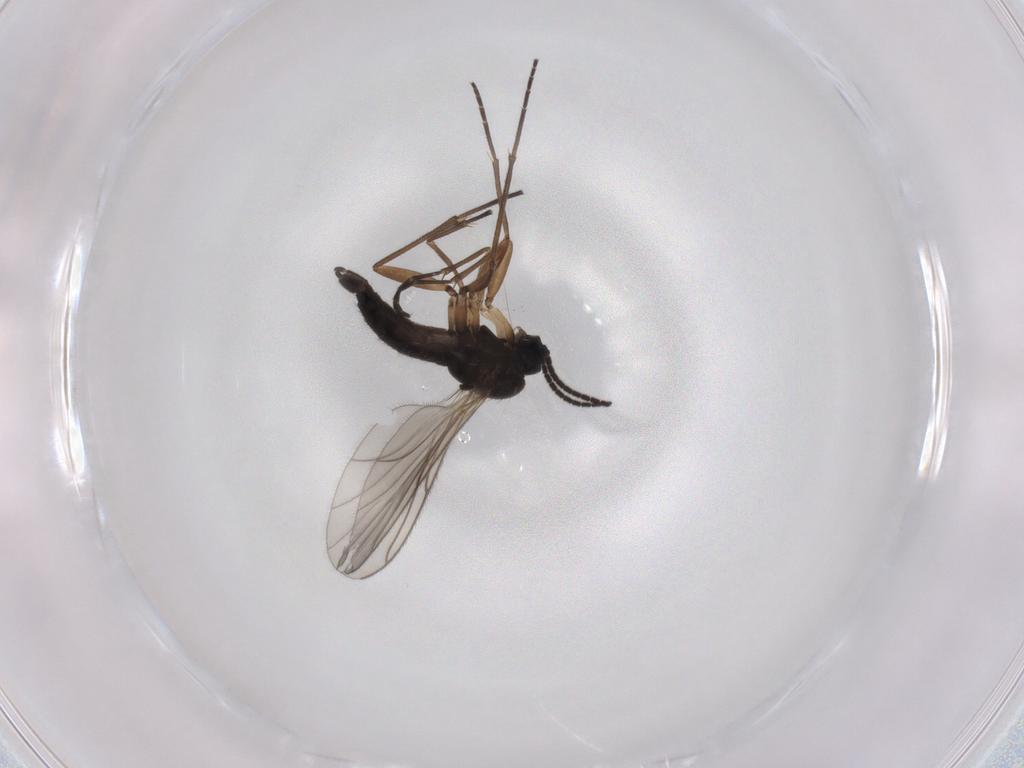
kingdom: Animalia
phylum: Arthropoda
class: Insecta
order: Diptera
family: Sciaridae
